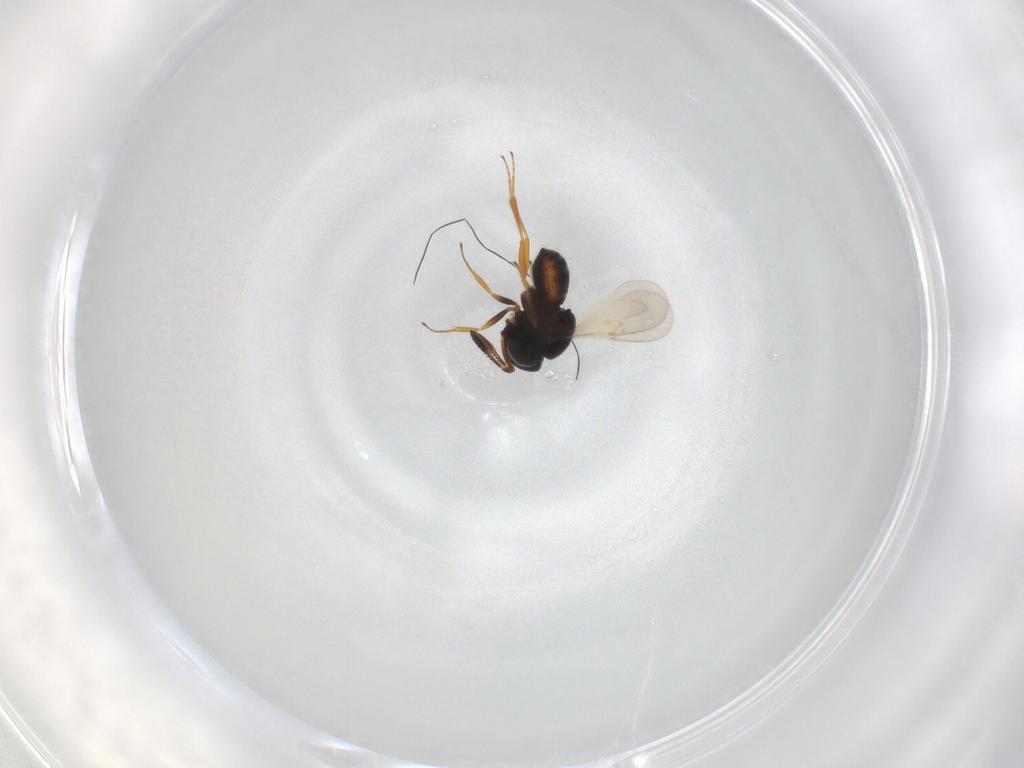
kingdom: Animalia
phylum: Arthropoda
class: Insecta
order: Hymenoptera
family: Scelionidae
